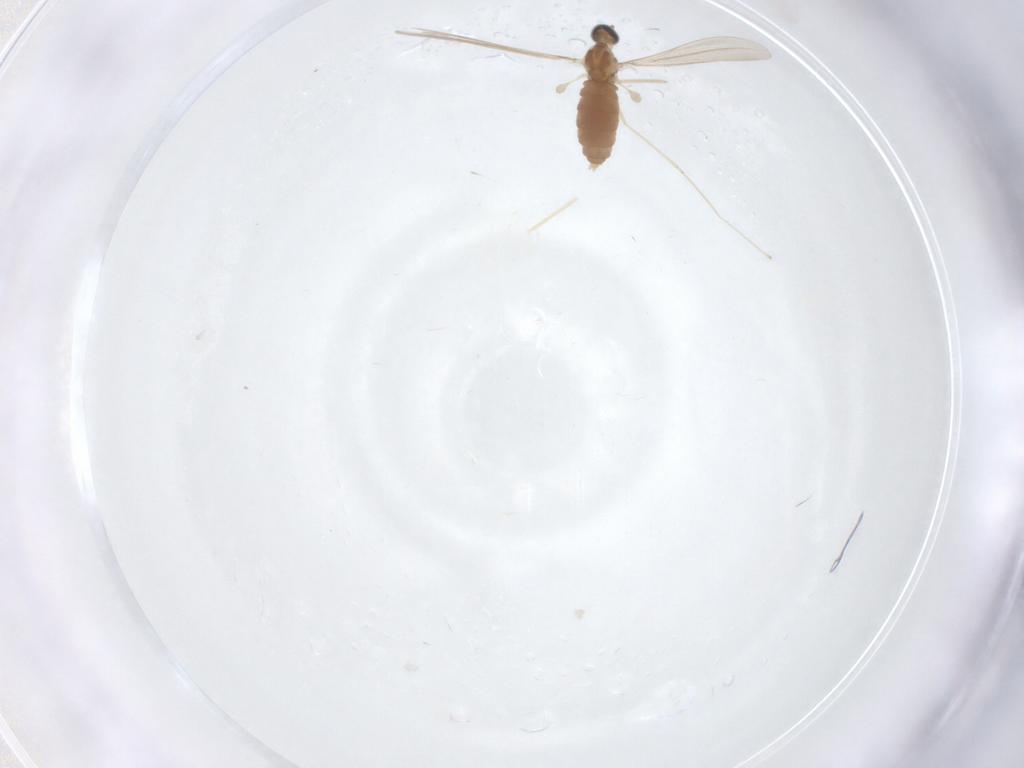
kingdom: Animalia
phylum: Arthropoda
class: Insecta
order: Diptera
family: Cecidomyiidae
